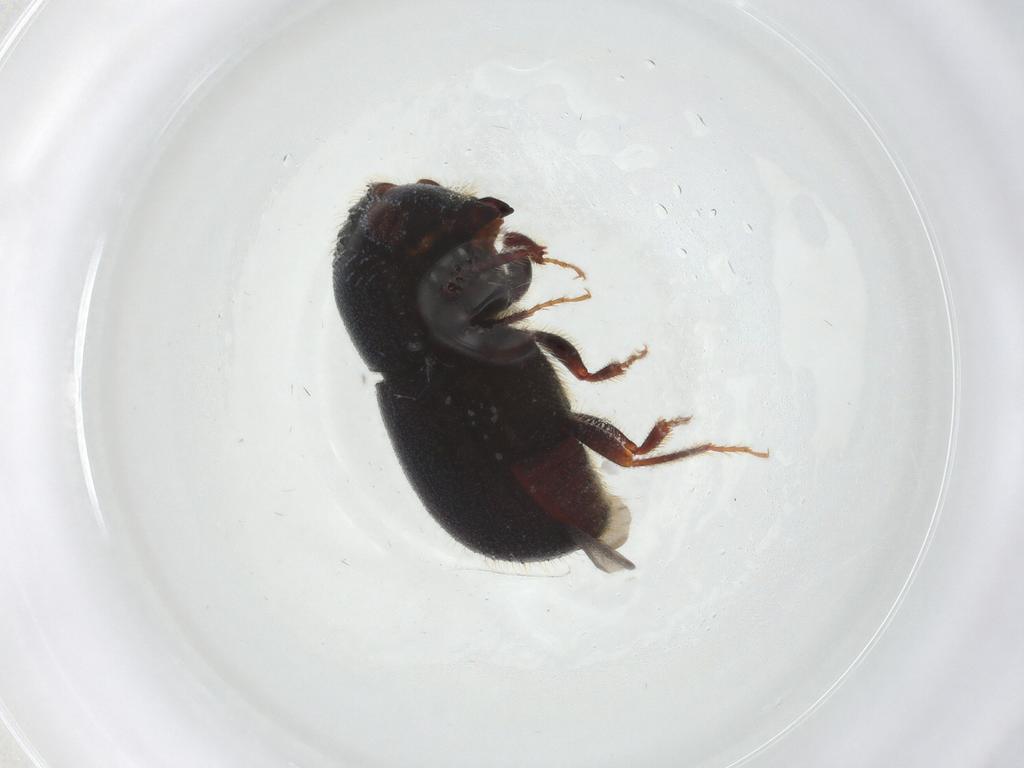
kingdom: Animalia
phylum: Arthropoda
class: Insecta
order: Coleoptera
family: Curculionidae
